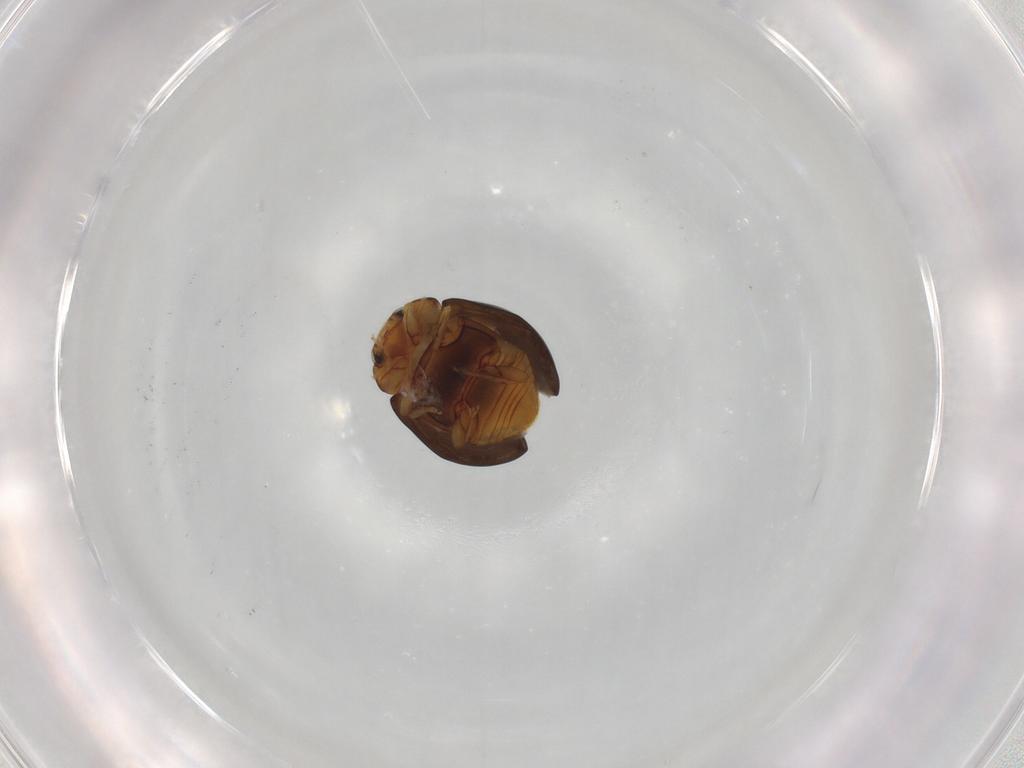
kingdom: Animalia
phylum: Arthropoda
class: Insecta
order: Coleoptera
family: Coccinellidae
